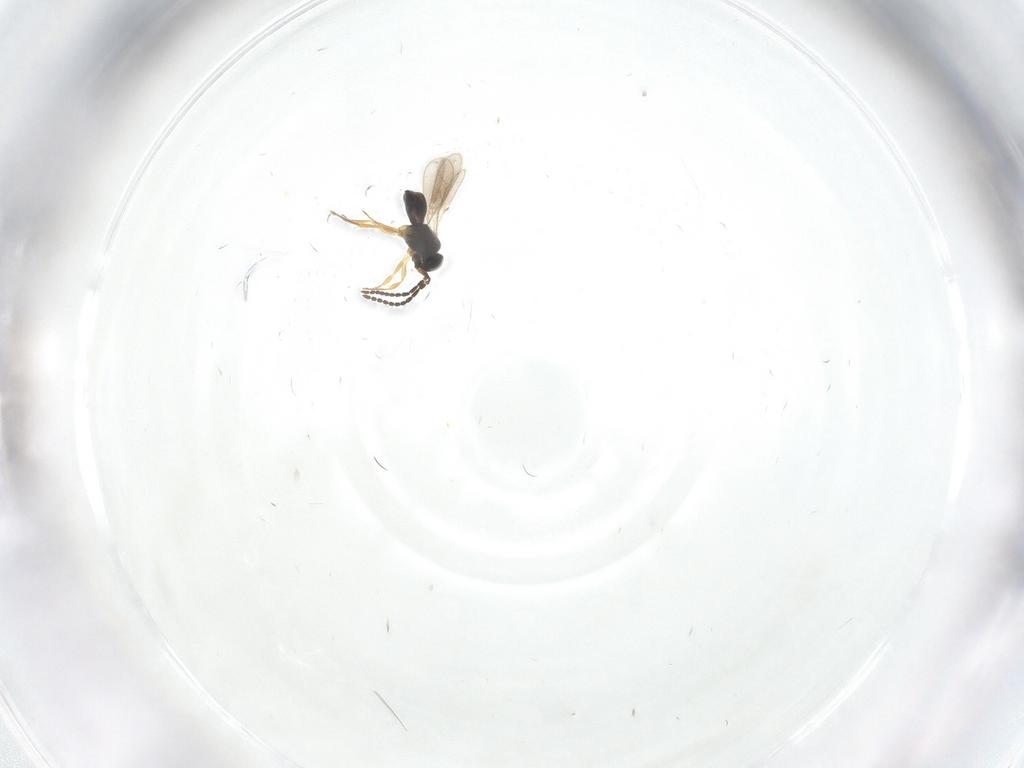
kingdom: Animalia
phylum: Arthropoda
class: Insecta
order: Hymenoptera
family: Scelionidae
